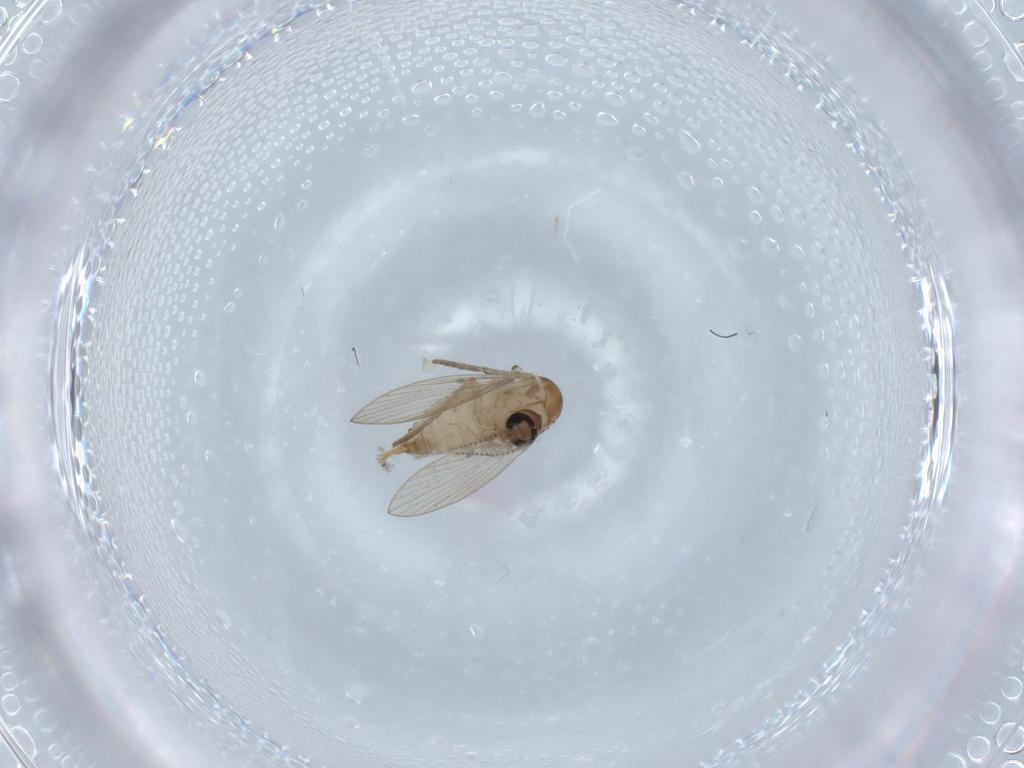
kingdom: Animalia
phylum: Arthropoda
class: Insecta
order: Diptera
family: Psychodidae
